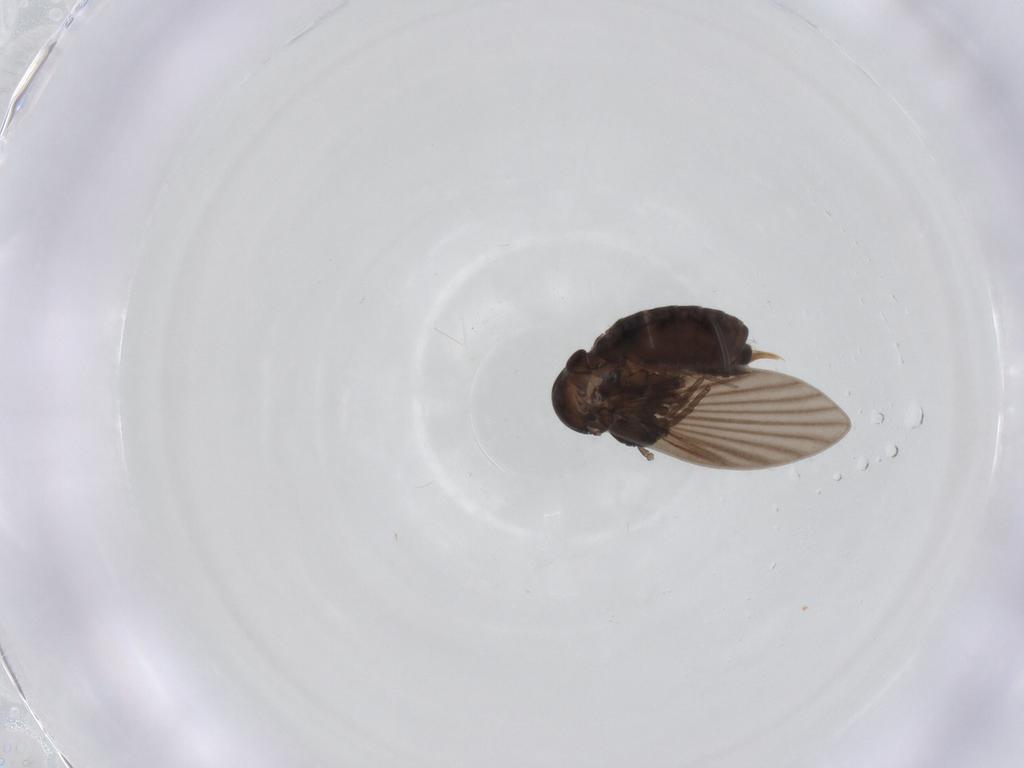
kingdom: Animalia
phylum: Arthropoda
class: Insecta
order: Diptera
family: Psychodidae
